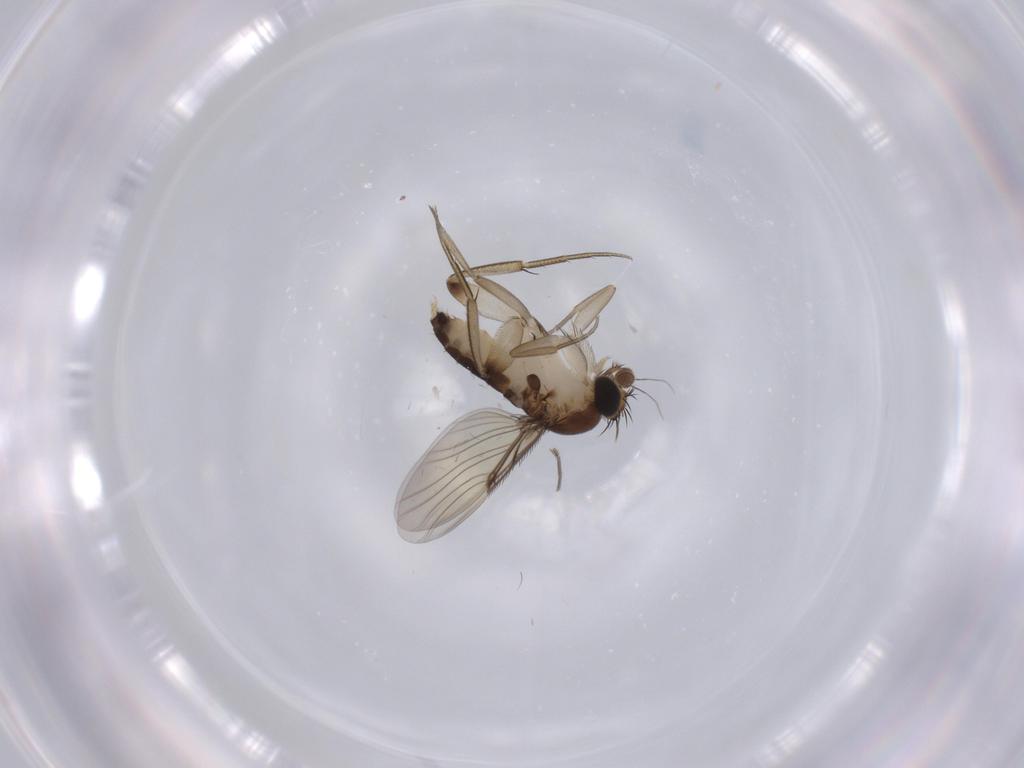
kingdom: Animalia
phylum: Arthropoda
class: Insecta
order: Diptera
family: Phoridae
